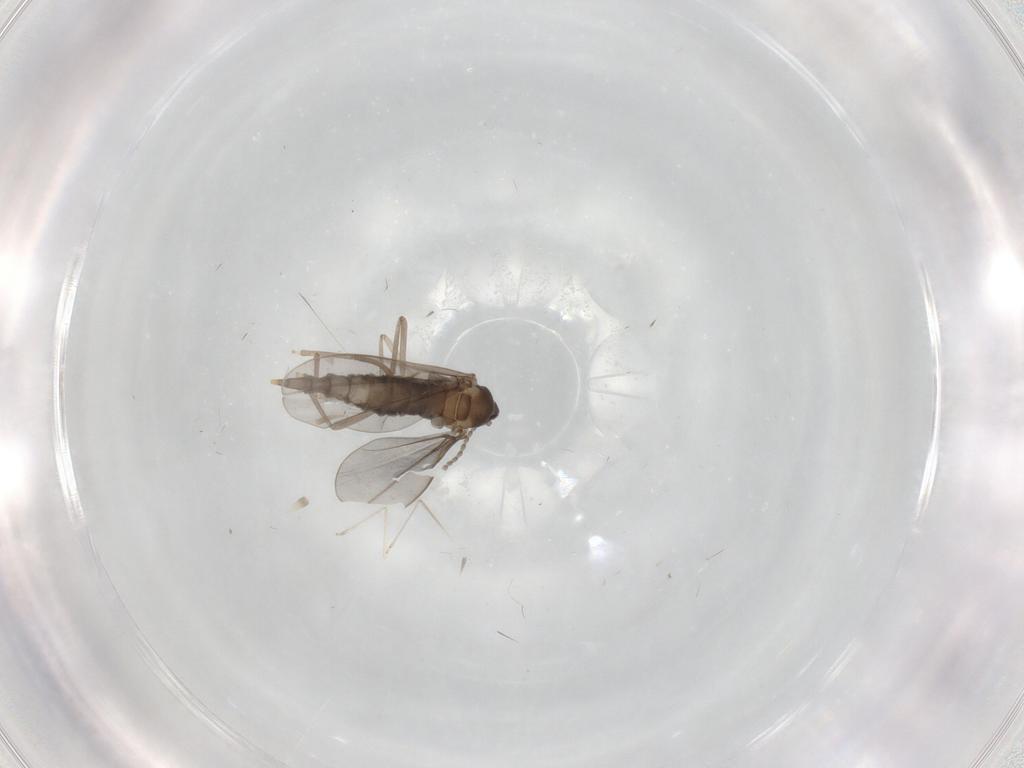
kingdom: Animalia
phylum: Arthropoda
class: Insecta
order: Diptera
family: Cecidomyiidae
